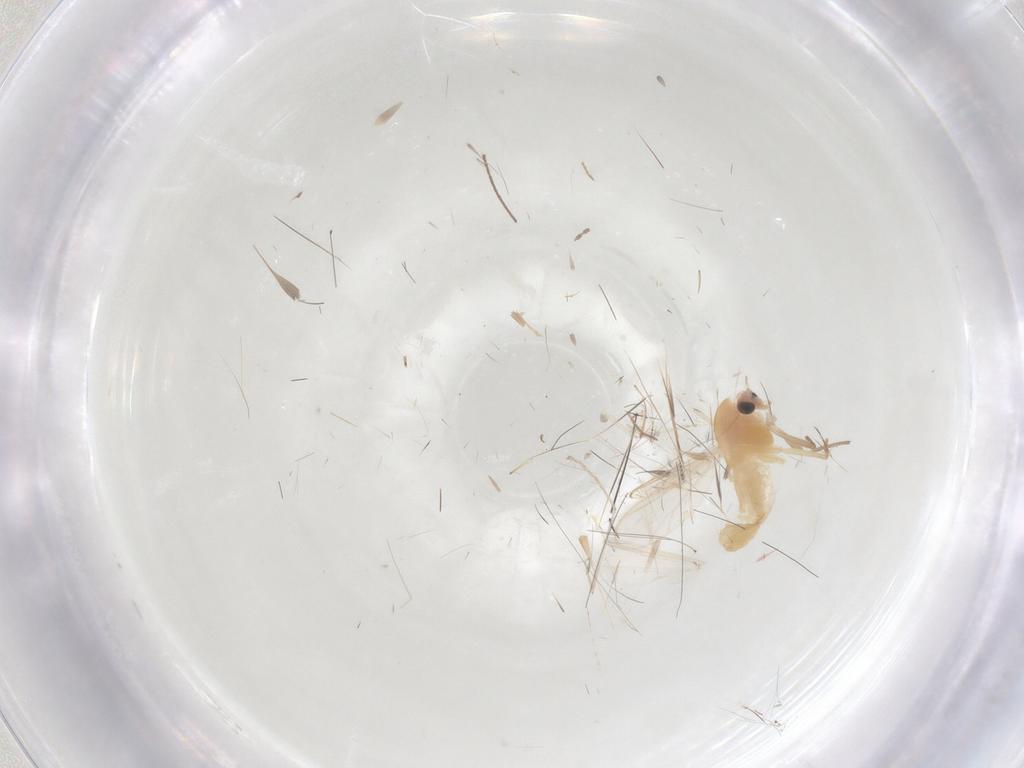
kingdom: Animalia
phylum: Arthropoda
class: Insecta
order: Diptera
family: Chironomidae
